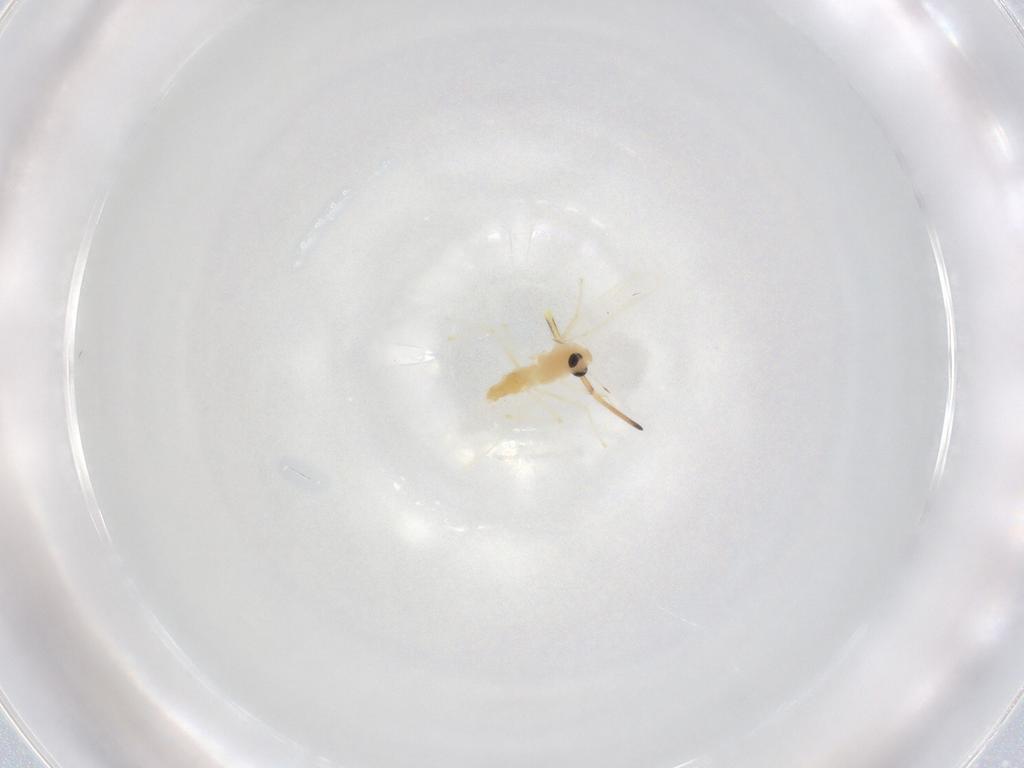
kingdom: Animalia
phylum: Arthropoda
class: Insecta
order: Diptera
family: Chironomidae
